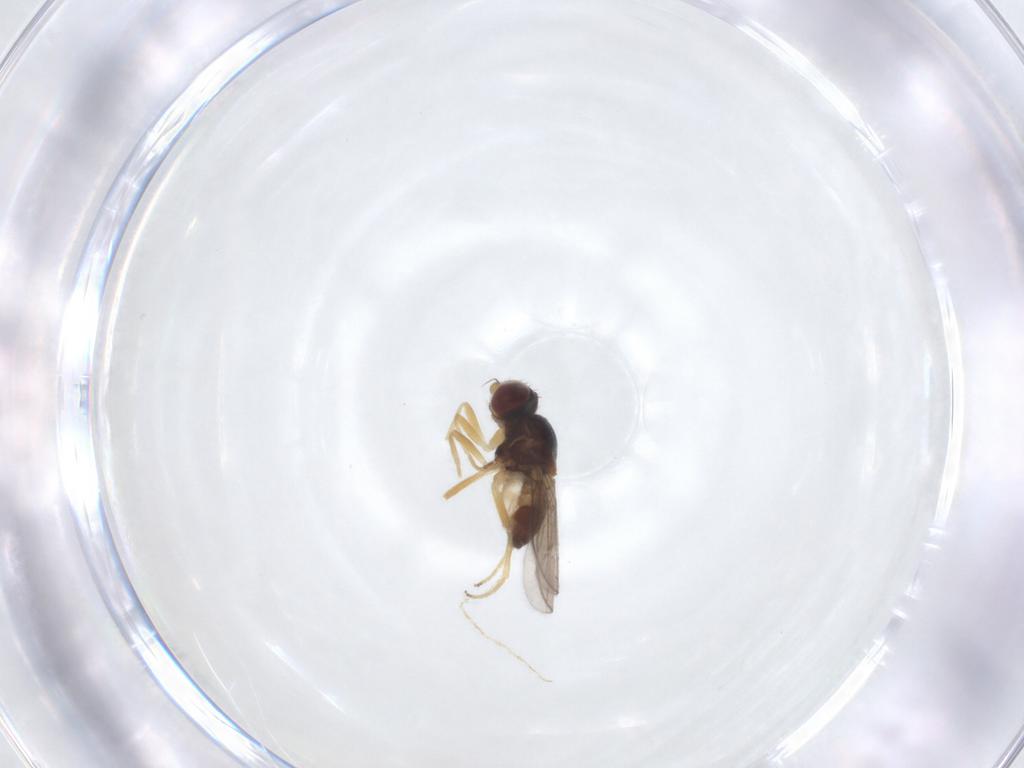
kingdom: Animalia
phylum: Arthropoda
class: Insecta
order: Diptera
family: Chloropidae
